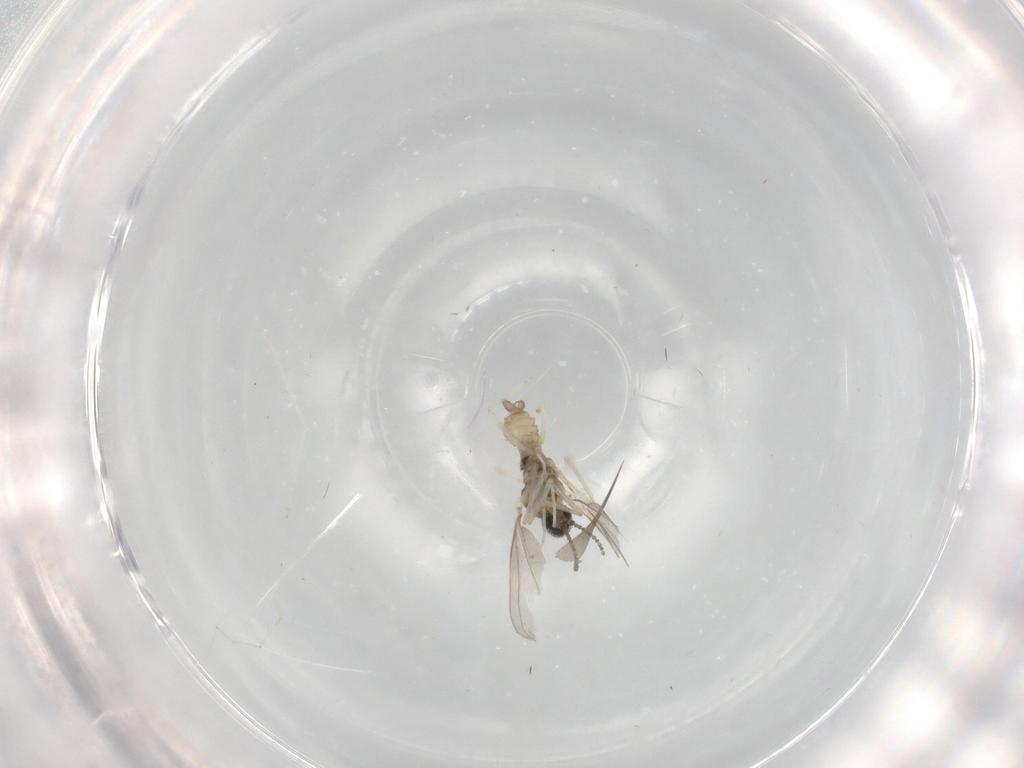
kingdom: Animalia
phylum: Arthropoda
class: Insecta
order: Diptera
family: Cecidomyiidae
